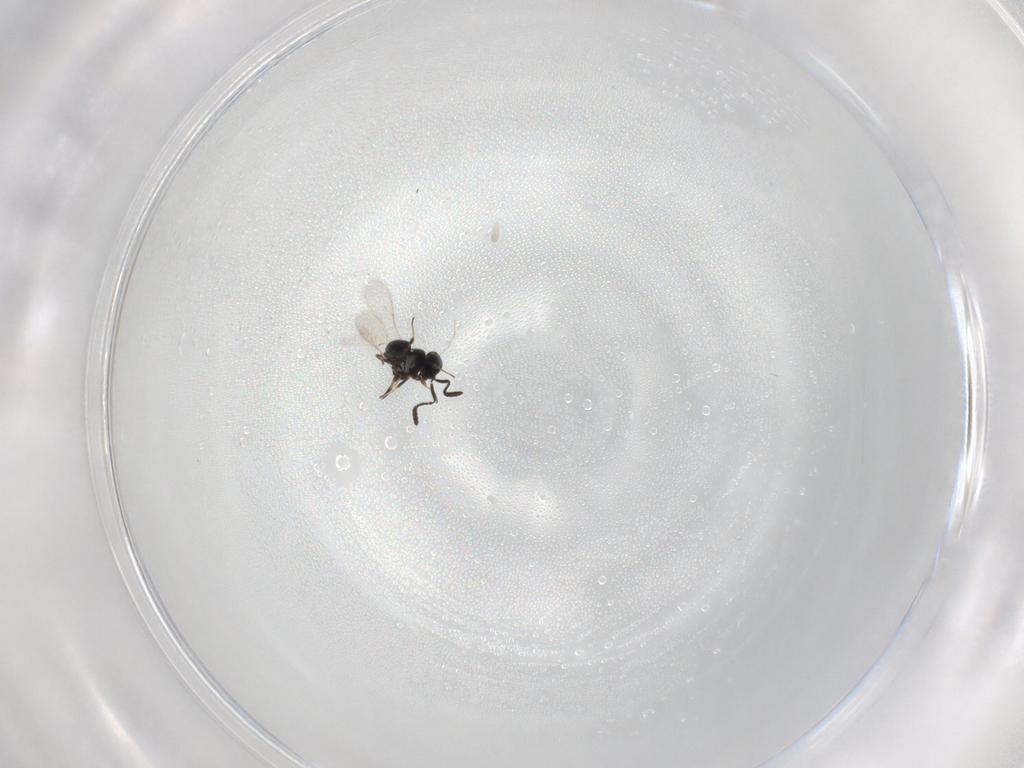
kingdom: Animalia
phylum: Arthropoda
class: Insecta
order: Hymenoptera
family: Scelionidae
